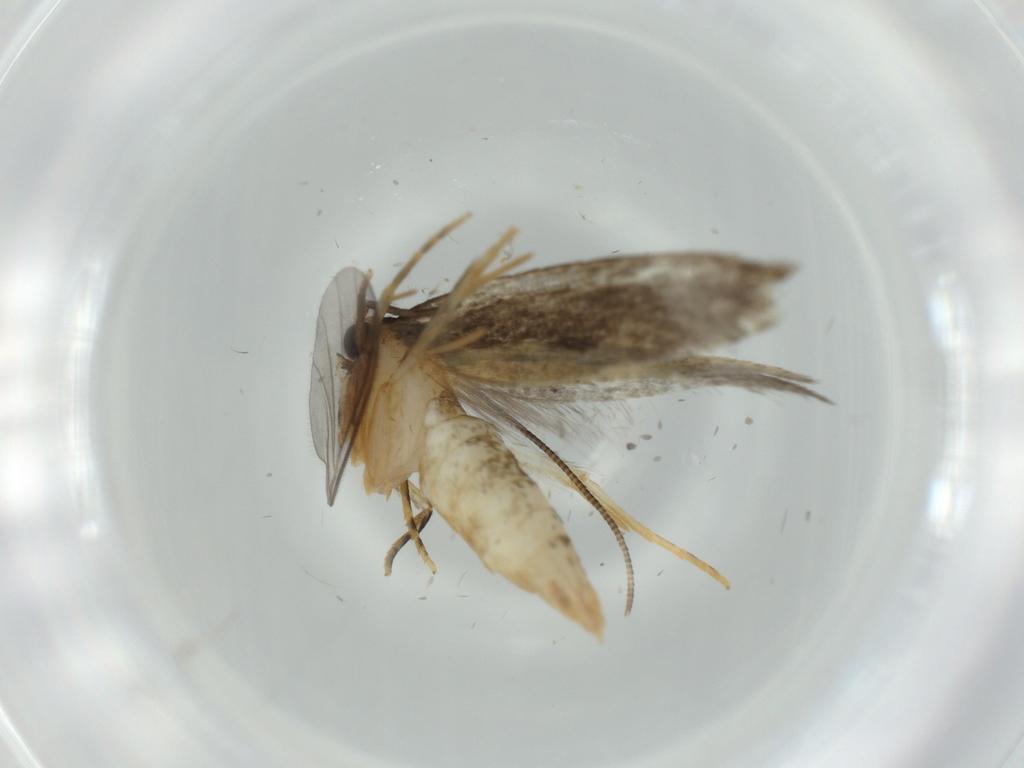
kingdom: Animalia
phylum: Arthropoda
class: Insecta
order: Lepidoptera
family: Tineidae
